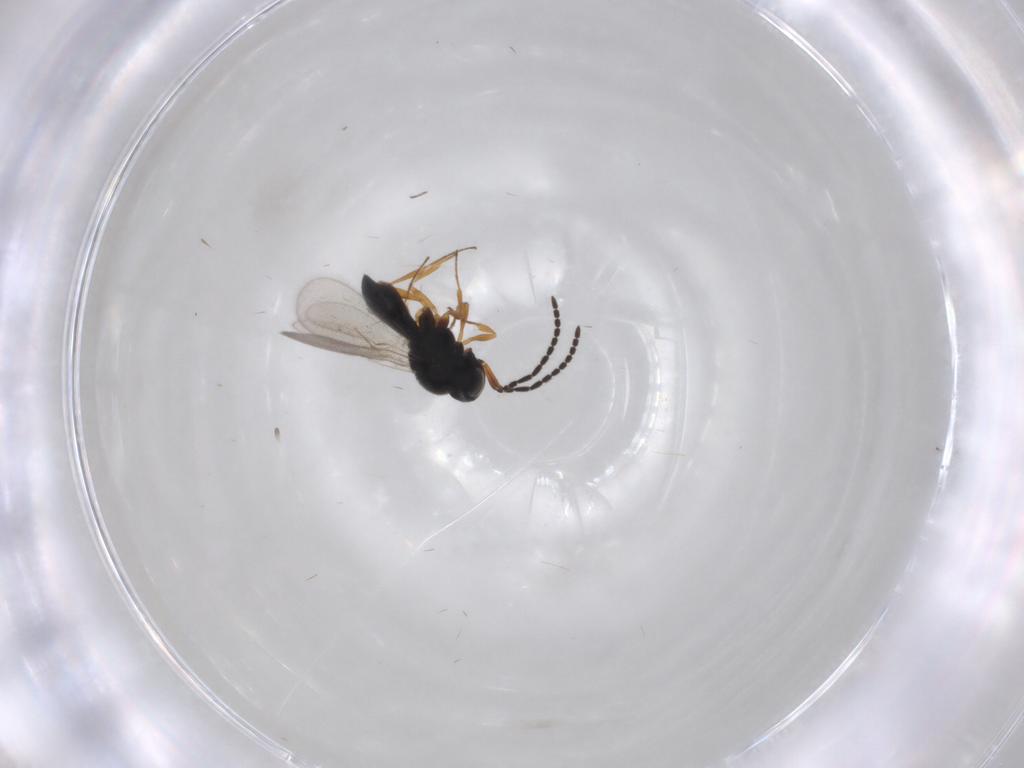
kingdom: Animalia
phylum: Arthropoda
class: Insecta
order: Hymenoptera
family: Scelionidae
